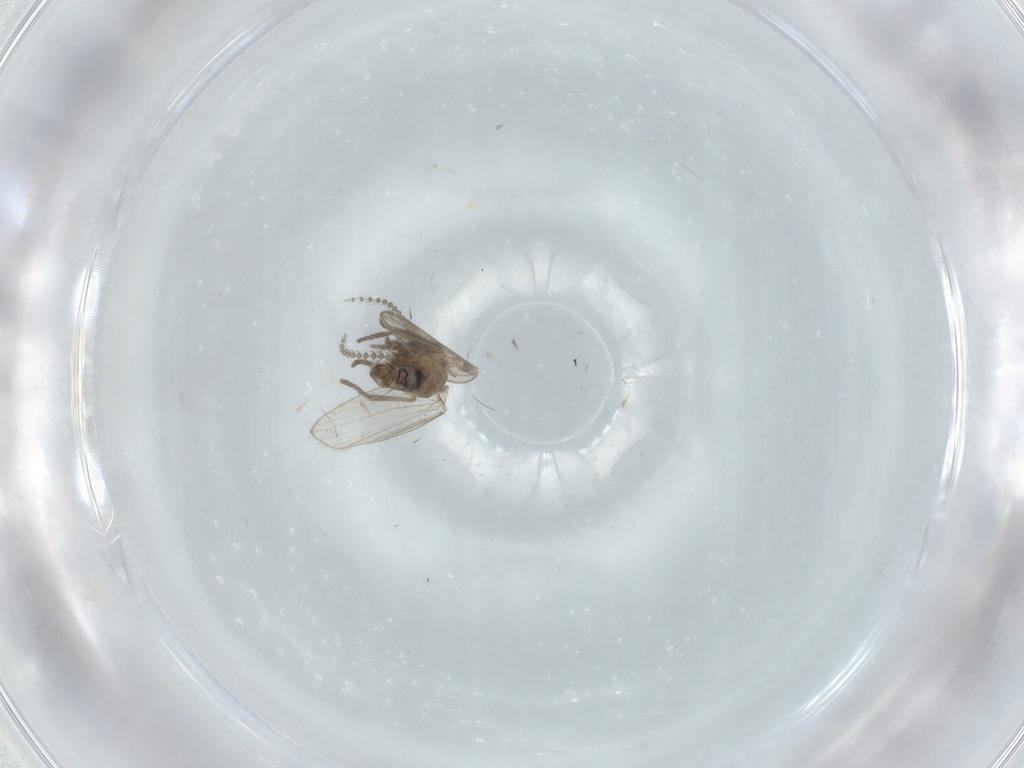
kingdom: Animalia
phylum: Arthropoda
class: Insecta
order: Diptera
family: Psychodidae
